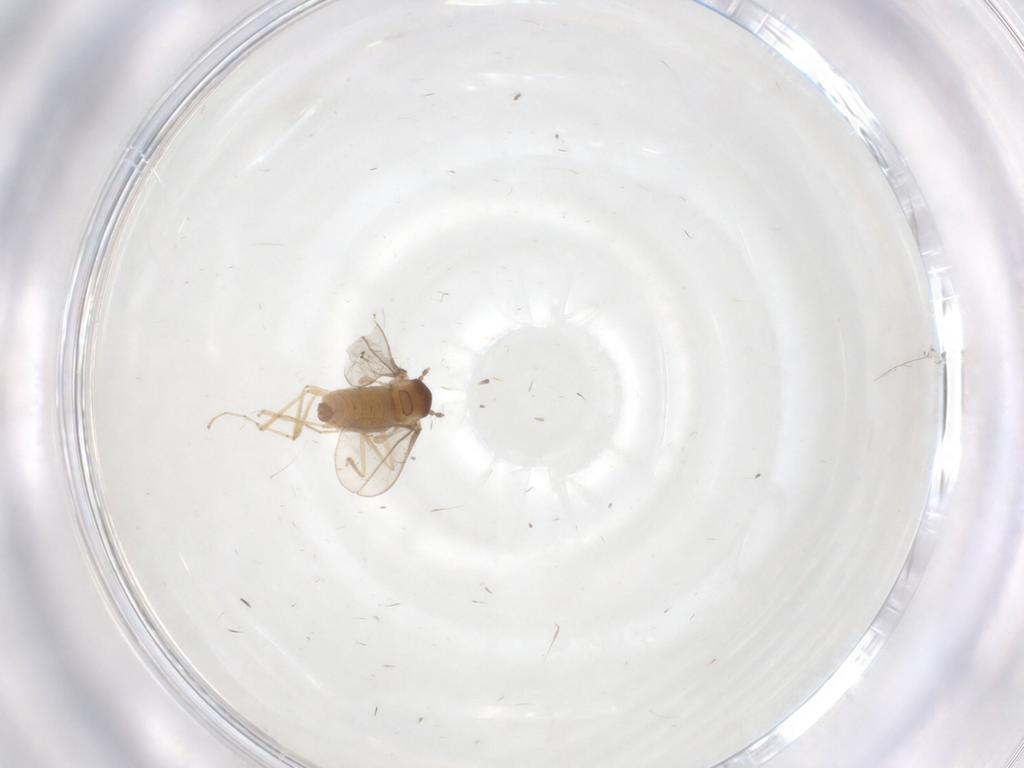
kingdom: Animalia
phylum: Arthropoda
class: Insecta
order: Diptera
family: Cecidomyiidae
